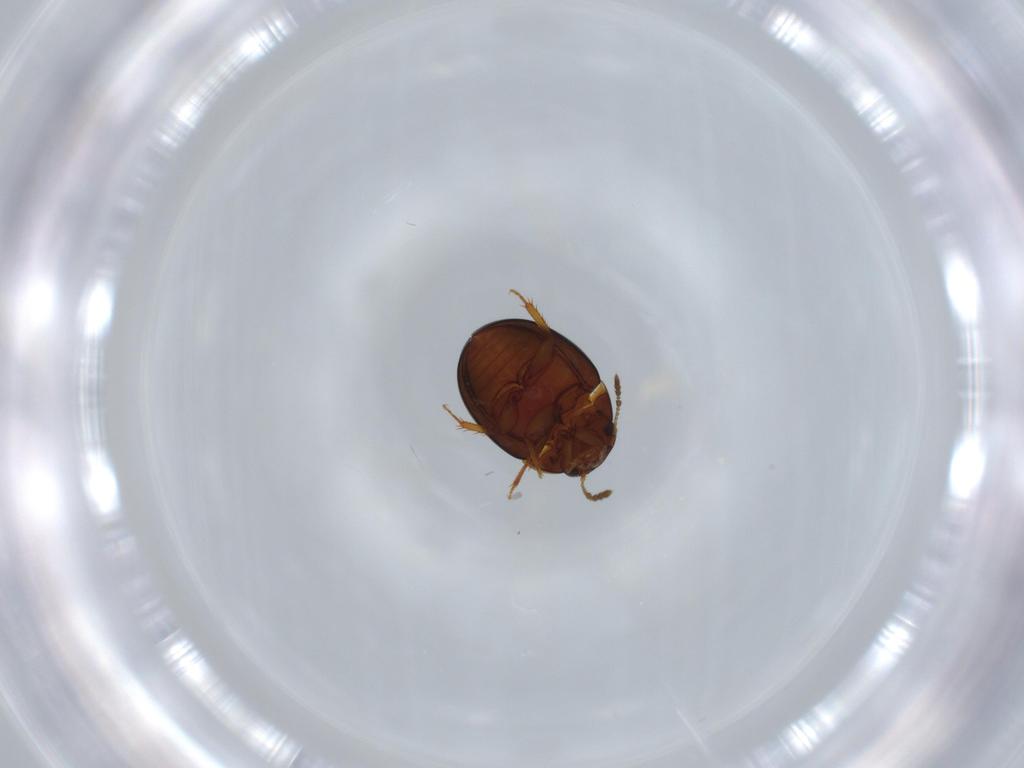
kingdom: Animalia
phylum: Arthropoda
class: Insecta
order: Coleoptera
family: Leiodidae
